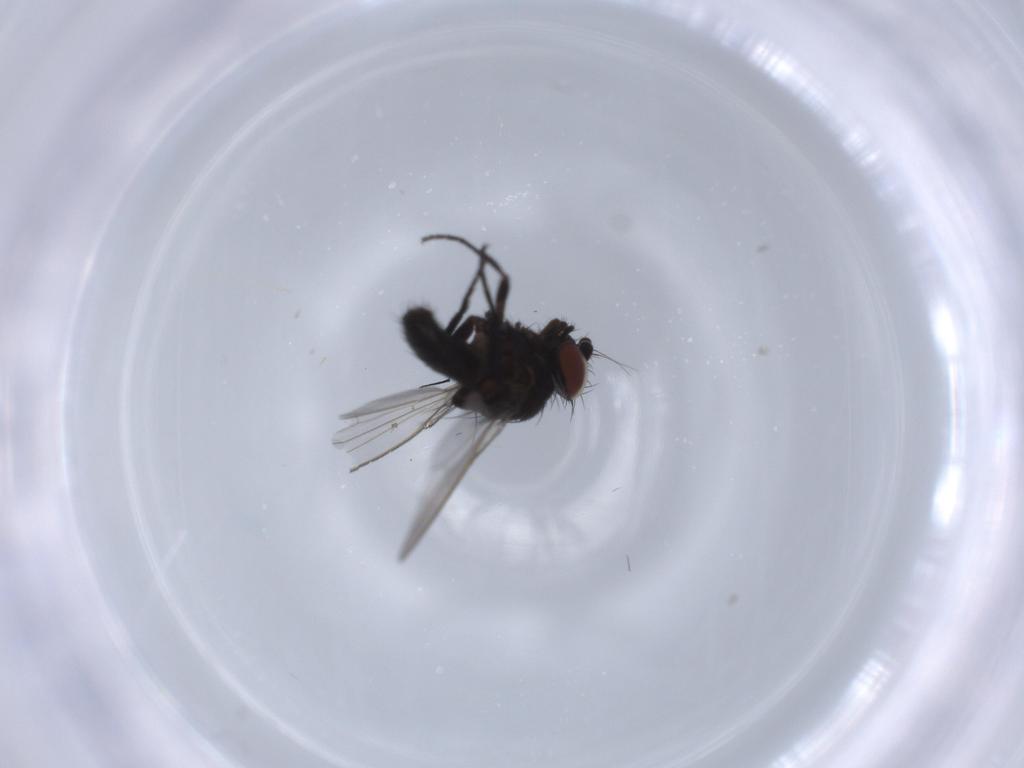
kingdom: Animalia
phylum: Arthropoda
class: Insecta
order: Diptera
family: Milichiidae
